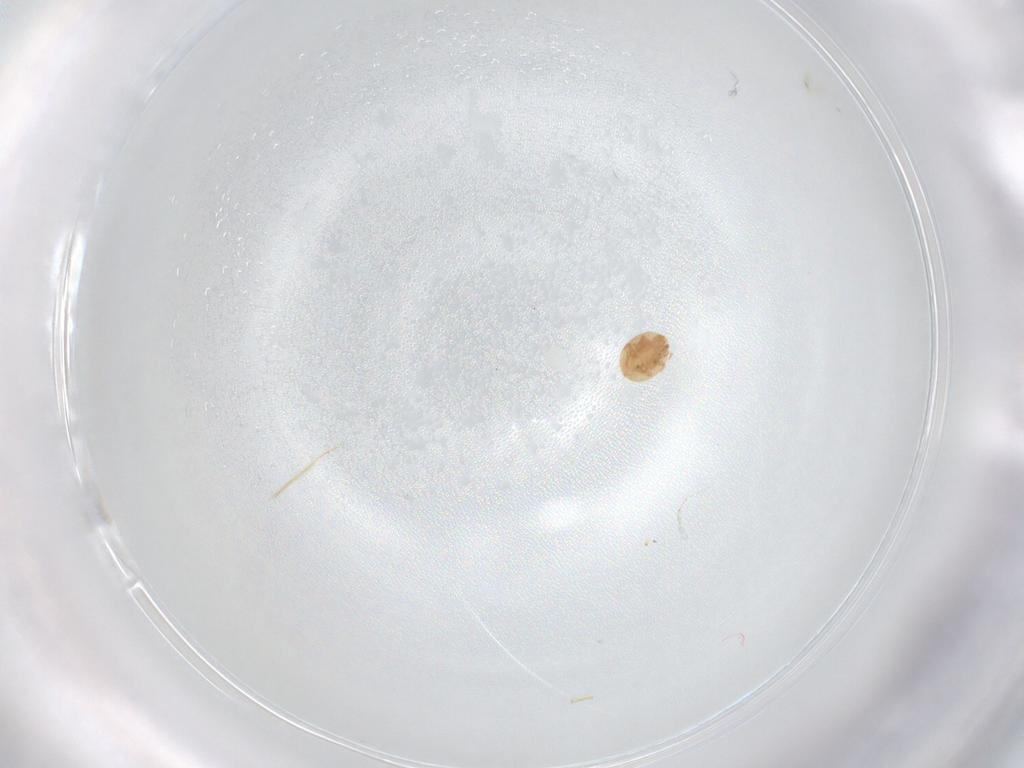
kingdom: Animalia
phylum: Arthropoda
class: Arachnida
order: Mesostigmata
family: Trematuridae
